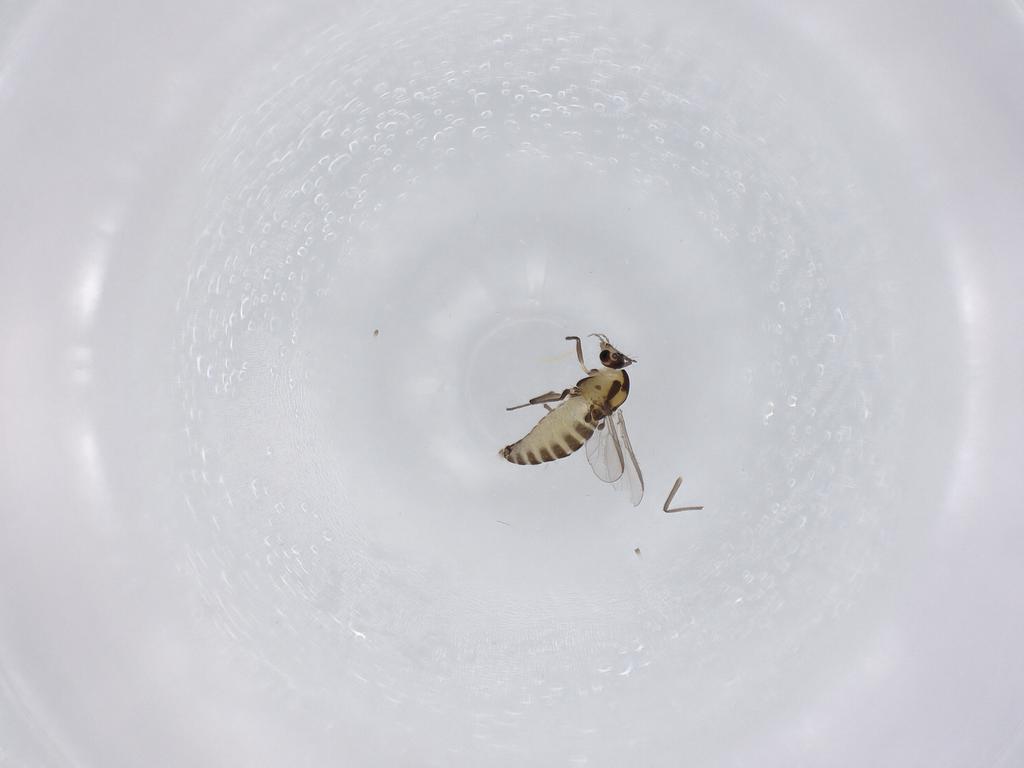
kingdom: Animalia
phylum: Arthropoda
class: Insecta
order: Diptera
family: Chironomidae
